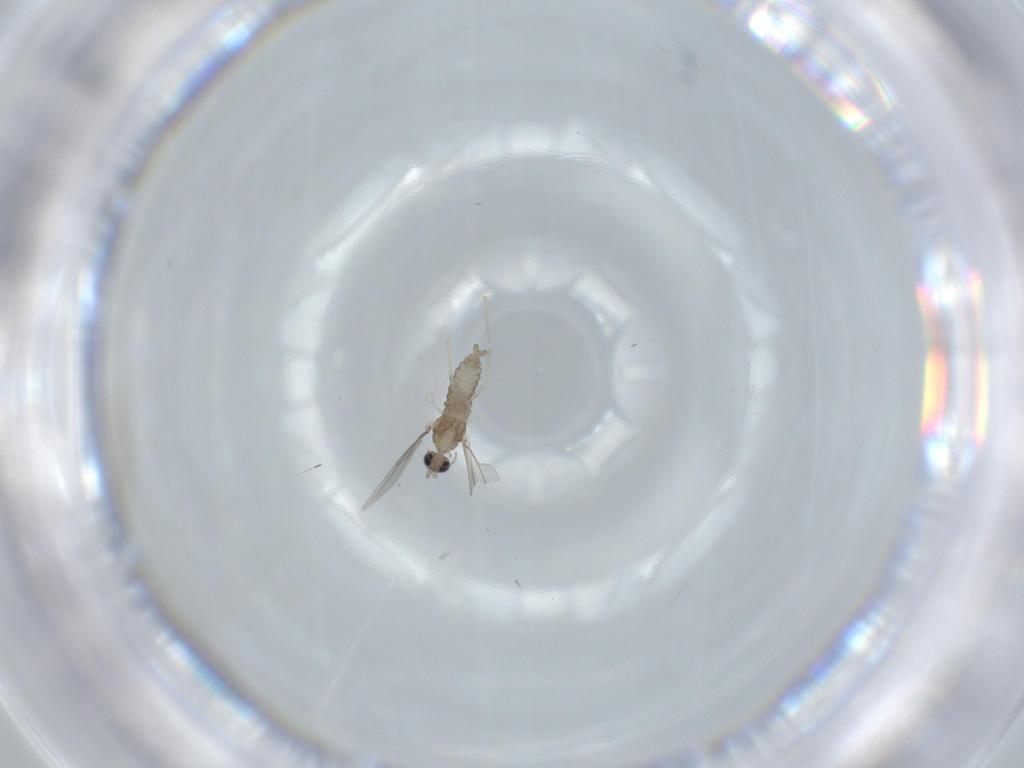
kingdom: Animalia
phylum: Arthropoda
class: Insecta
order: Diptera
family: Cecidomyiidae
